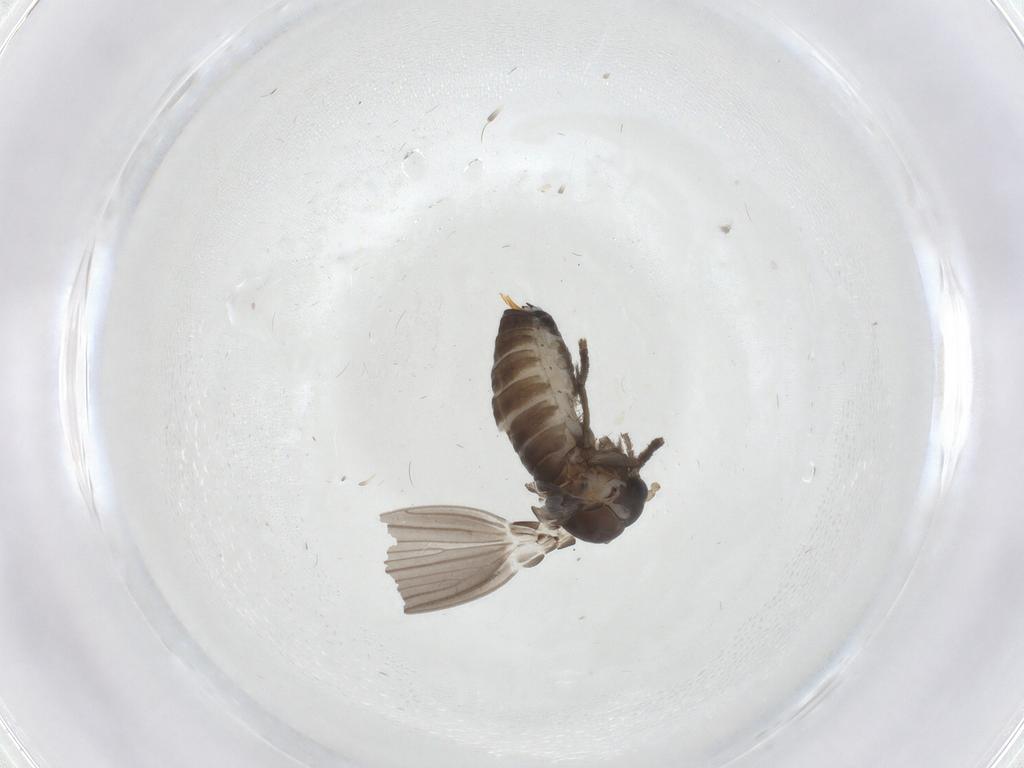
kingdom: Animalia
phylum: Arthropoda
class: Insecta
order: Diptera
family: Psychodidae
